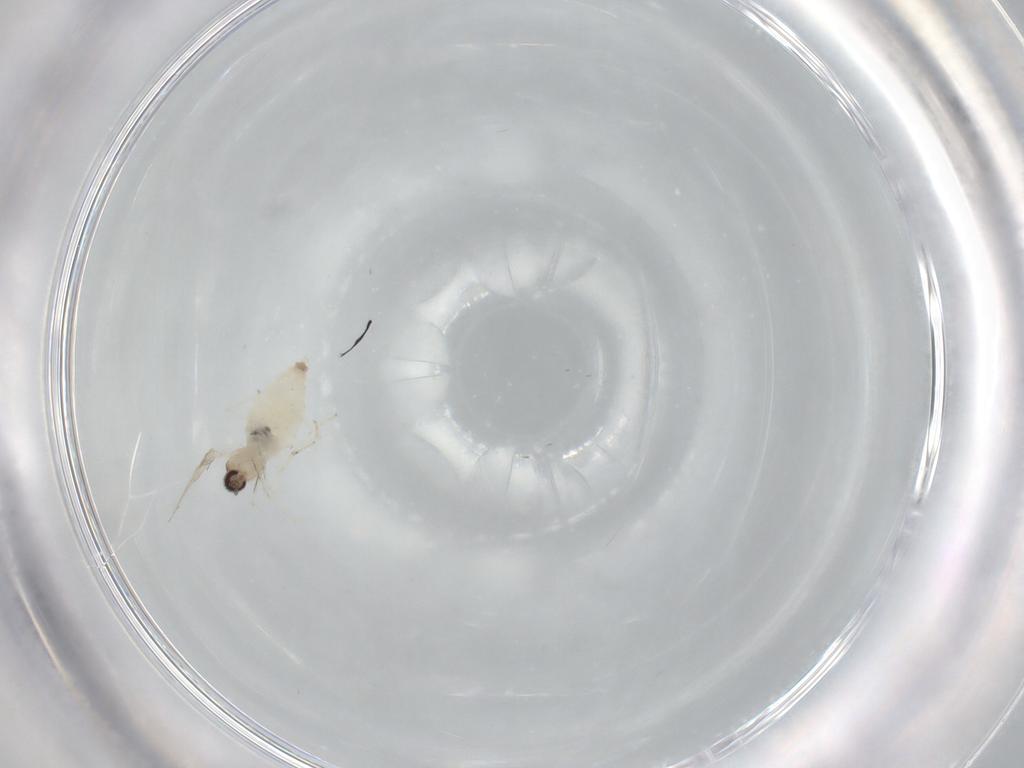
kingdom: Animalia
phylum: Arthropoda
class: Insecta
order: Diptera
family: Cecidomyiidae
